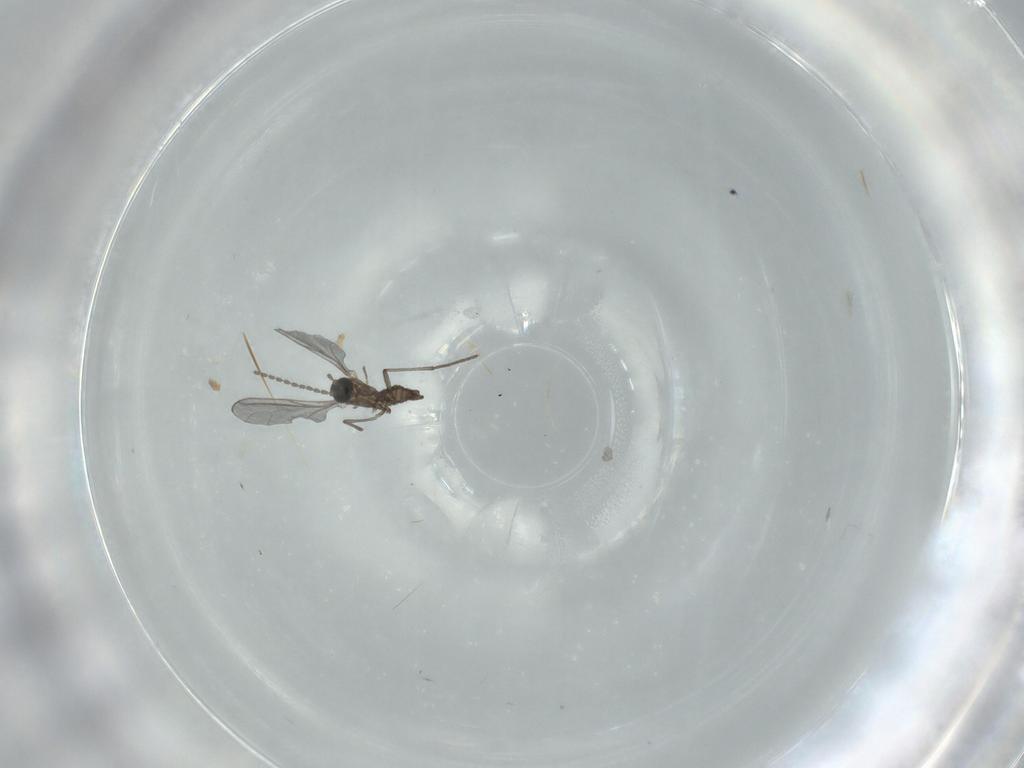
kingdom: Animalia
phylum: Arthropoda
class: Insecta
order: Diptera
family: Sciaridae
